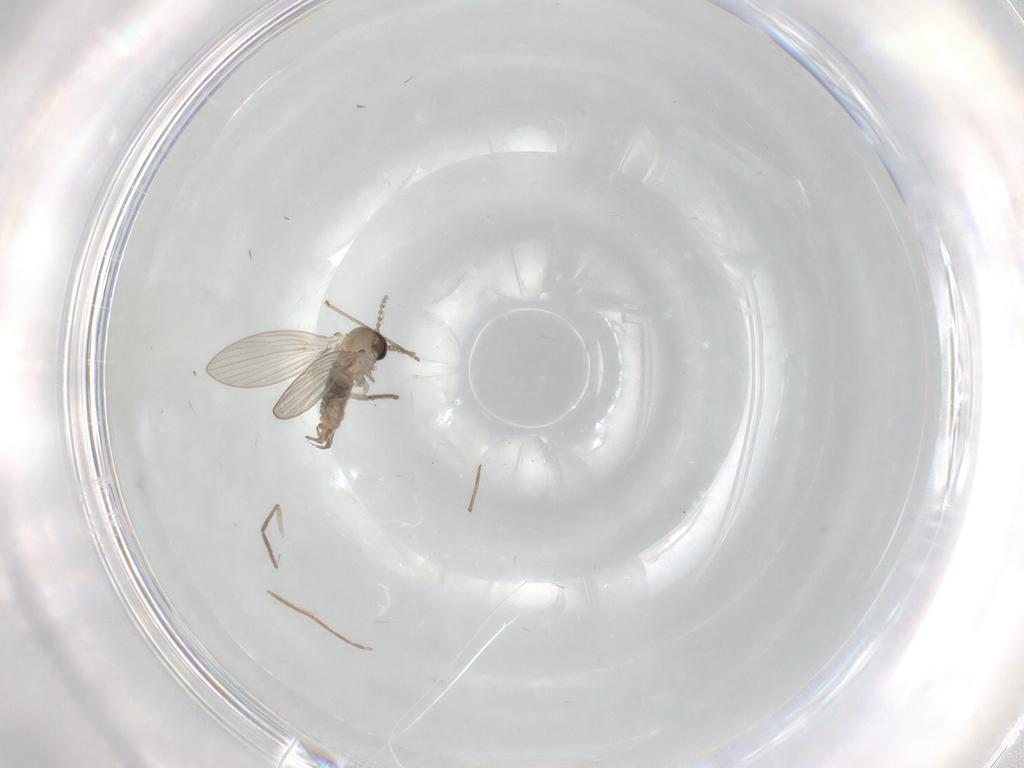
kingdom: Animalia
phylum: Arthropoda
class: Insecta
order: Diptera
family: Psychodidae
